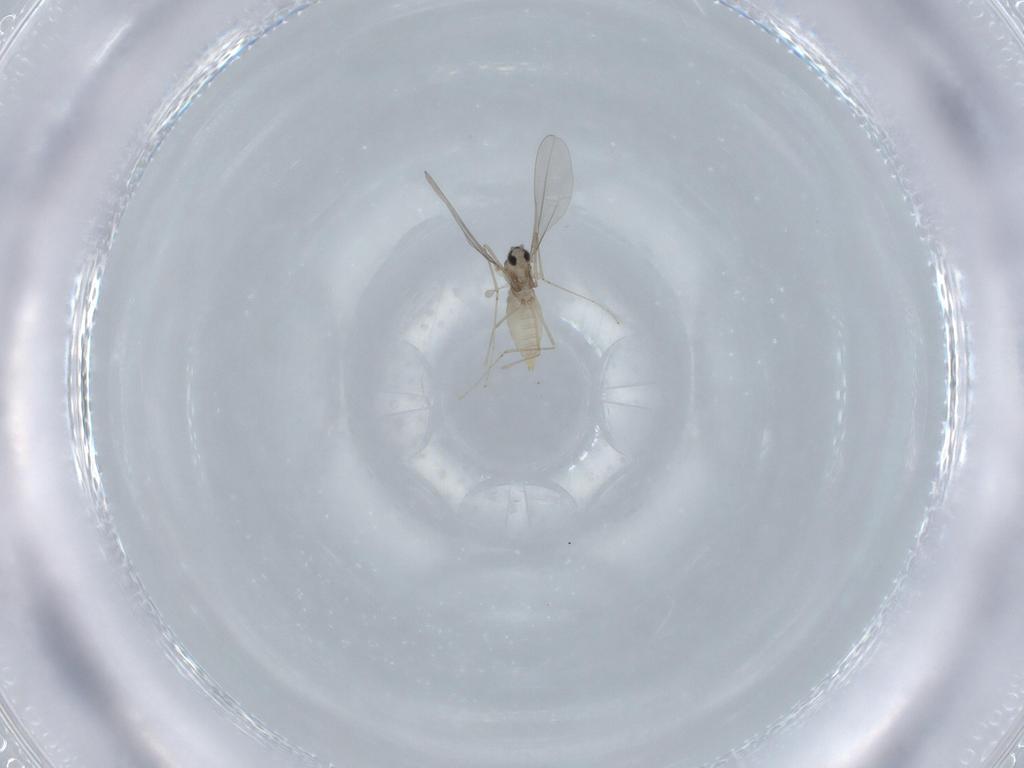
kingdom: Animalia
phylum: Arthropoda
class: Insecta
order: Diptera
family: Cecidomyiidae
